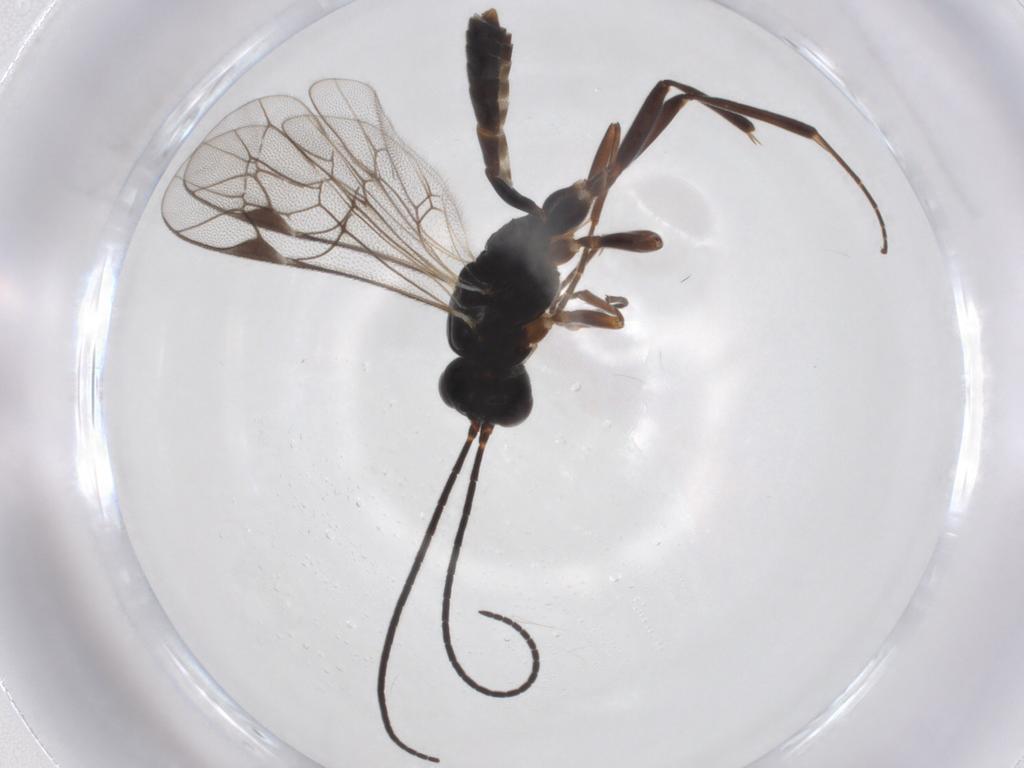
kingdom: Animalia
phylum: Arthropoda
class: Insecta
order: Hymenoptera
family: Ichneumonidae
